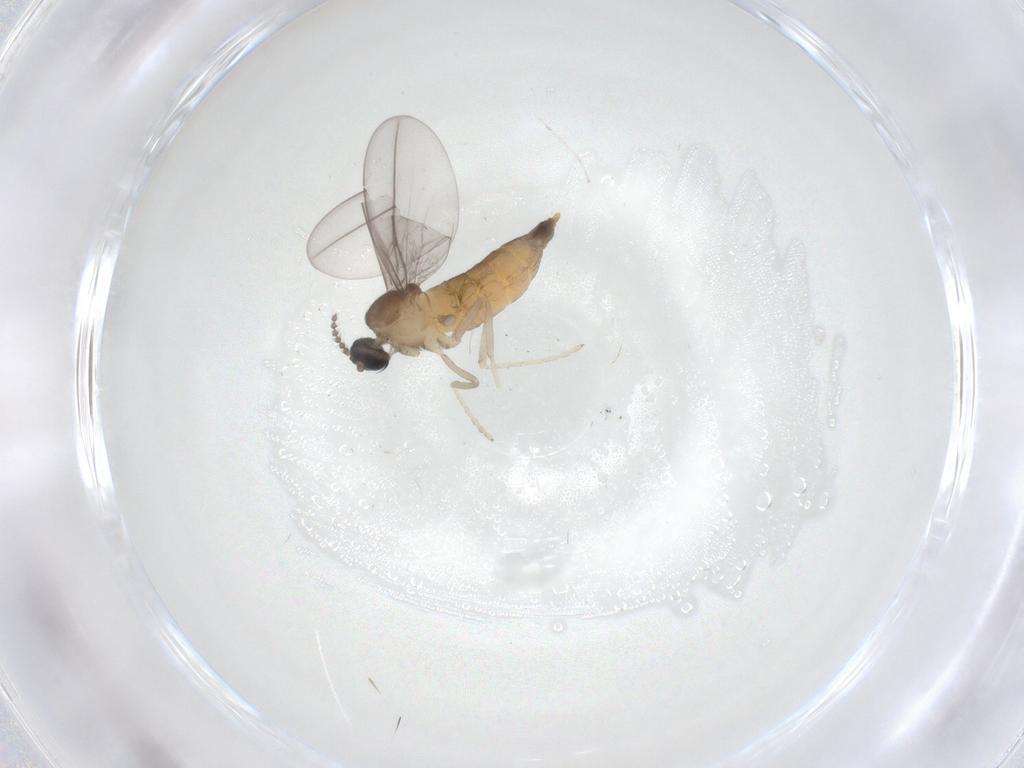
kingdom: Animalia
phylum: Arthropoda
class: Insecta
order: Diptera
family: Cecidomyiidae
